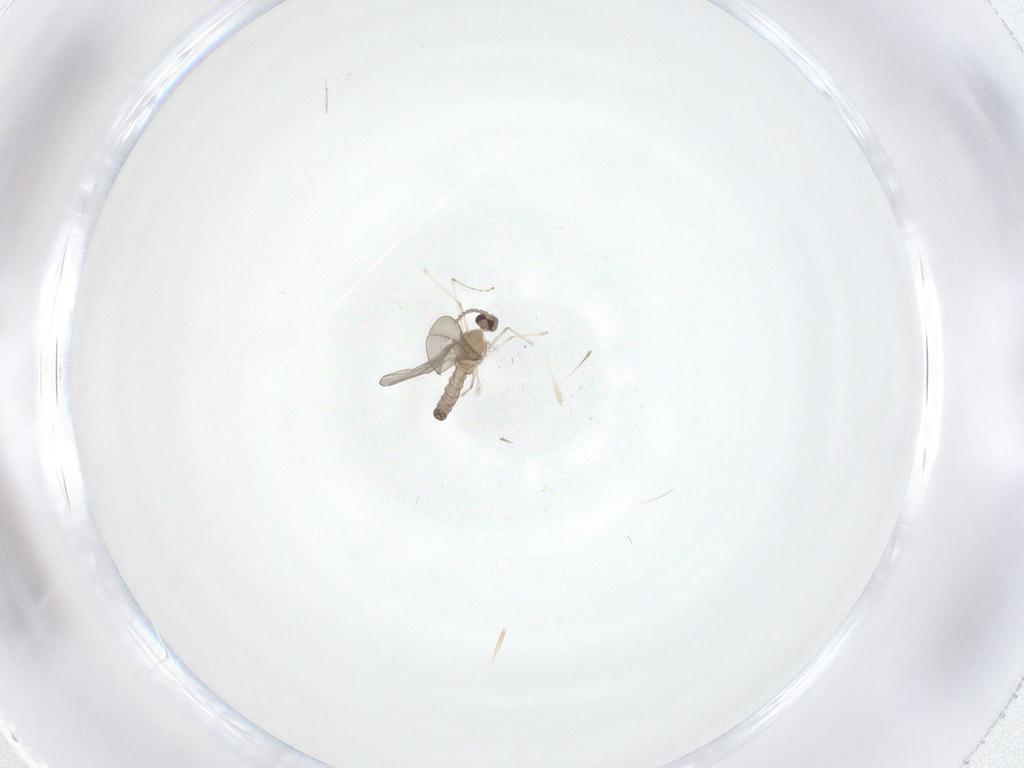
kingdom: Animalia
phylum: Arthropoda
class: Insecta
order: Diptera
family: Cecidomyiidae
